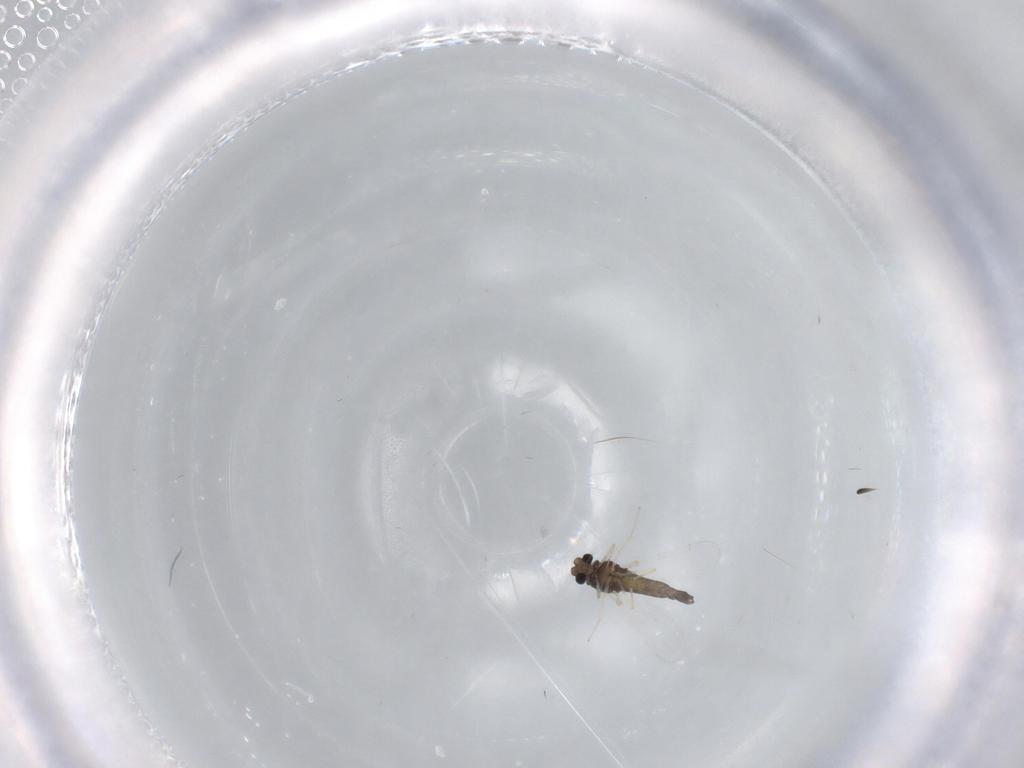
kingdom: Animalia
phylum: Arthropoda
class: Insecta
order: Diptera
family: Chironomidae
